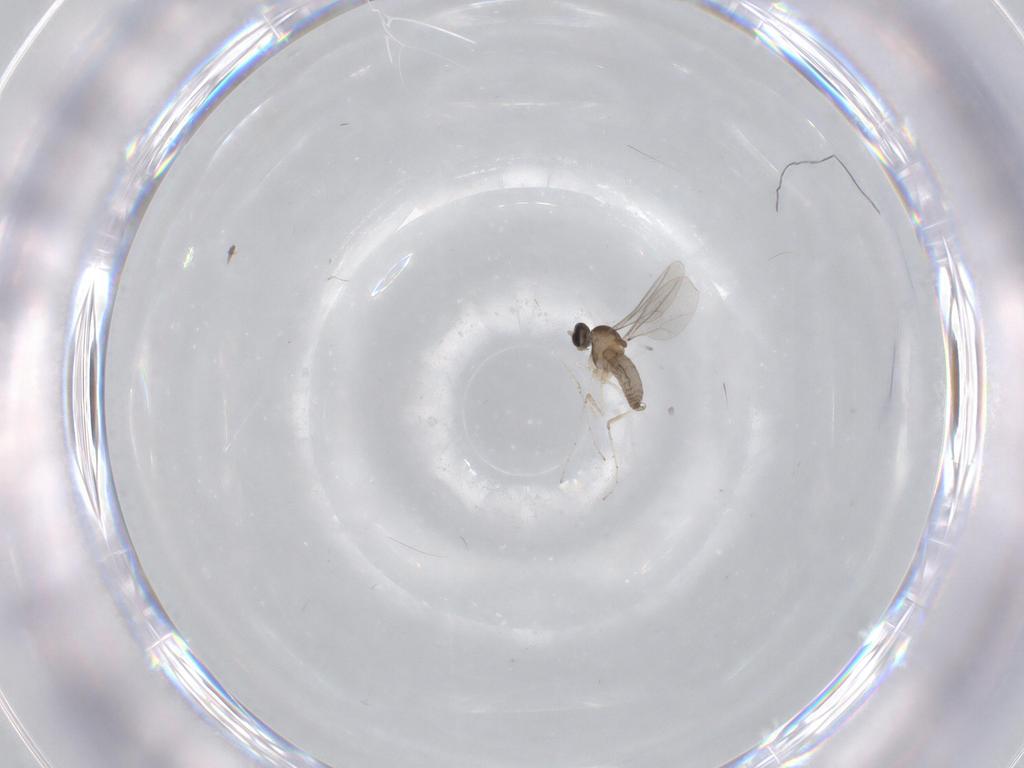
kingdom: Animalia
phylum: Arthropoda
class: Insecta
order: Diptera
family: Cecidomyiidae
